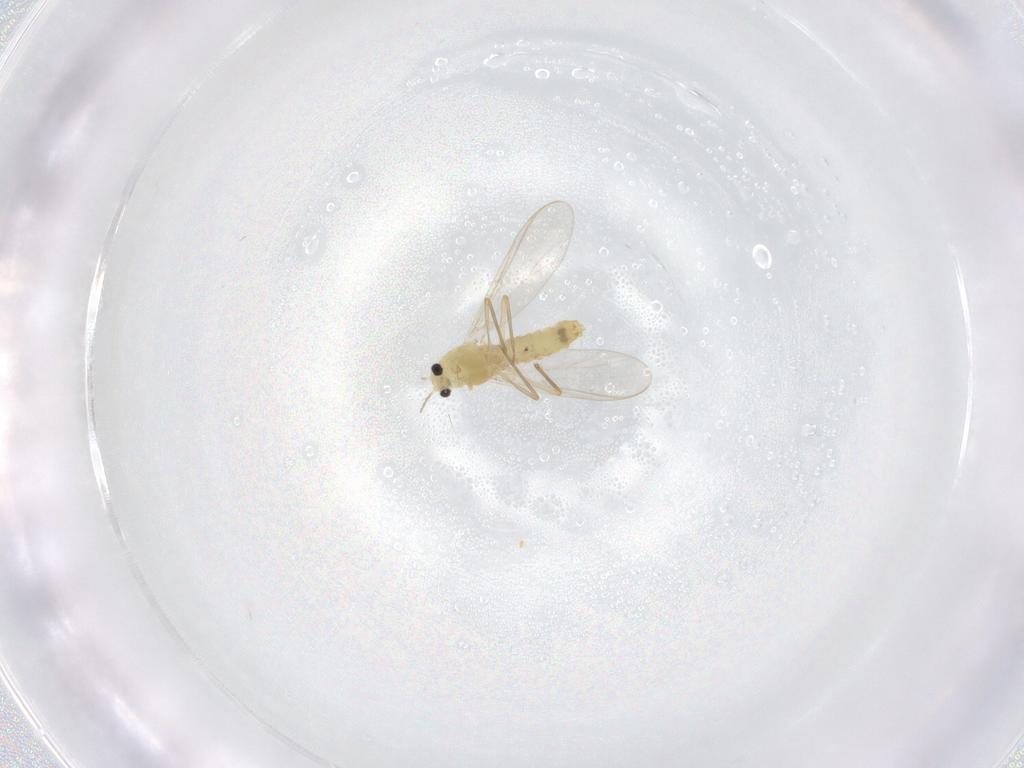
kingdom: Animalia
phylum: Arthropoda
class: Insecta
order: Diptera
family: Chironomidae
